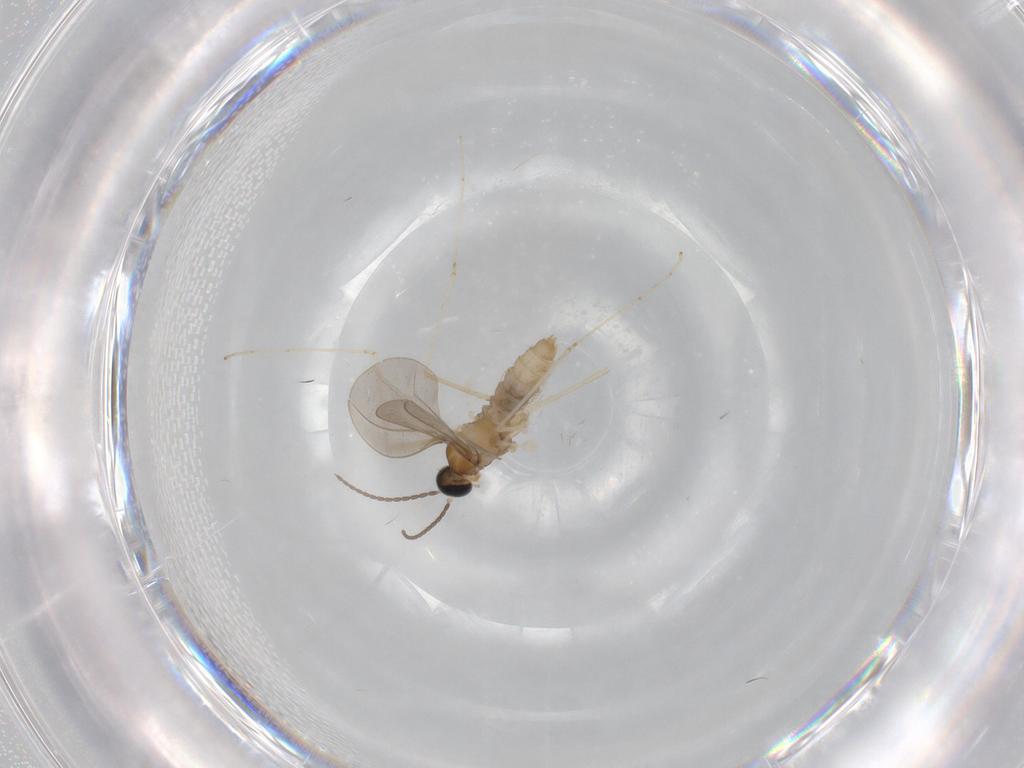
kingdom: Animalia
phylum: Arthropoda
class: Insecta
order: Diptera
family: Cecidomyiidae
